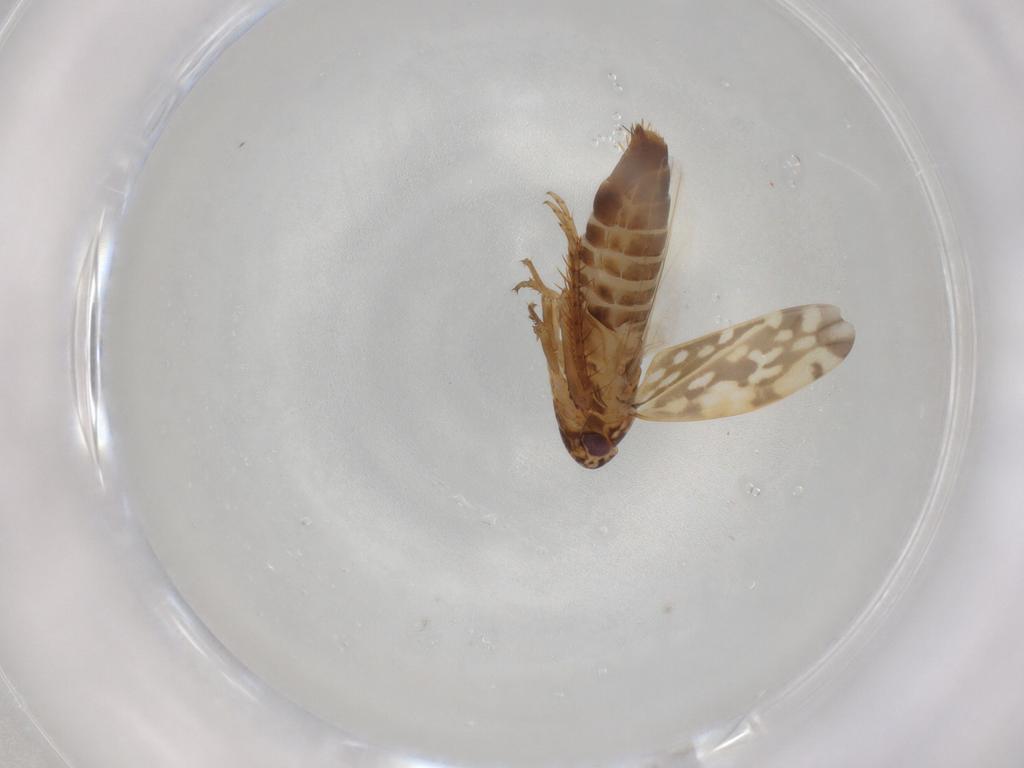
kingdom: Animalia
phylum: Arthropoda
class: Insecta
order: Hemiptera
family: Cicadellidae
